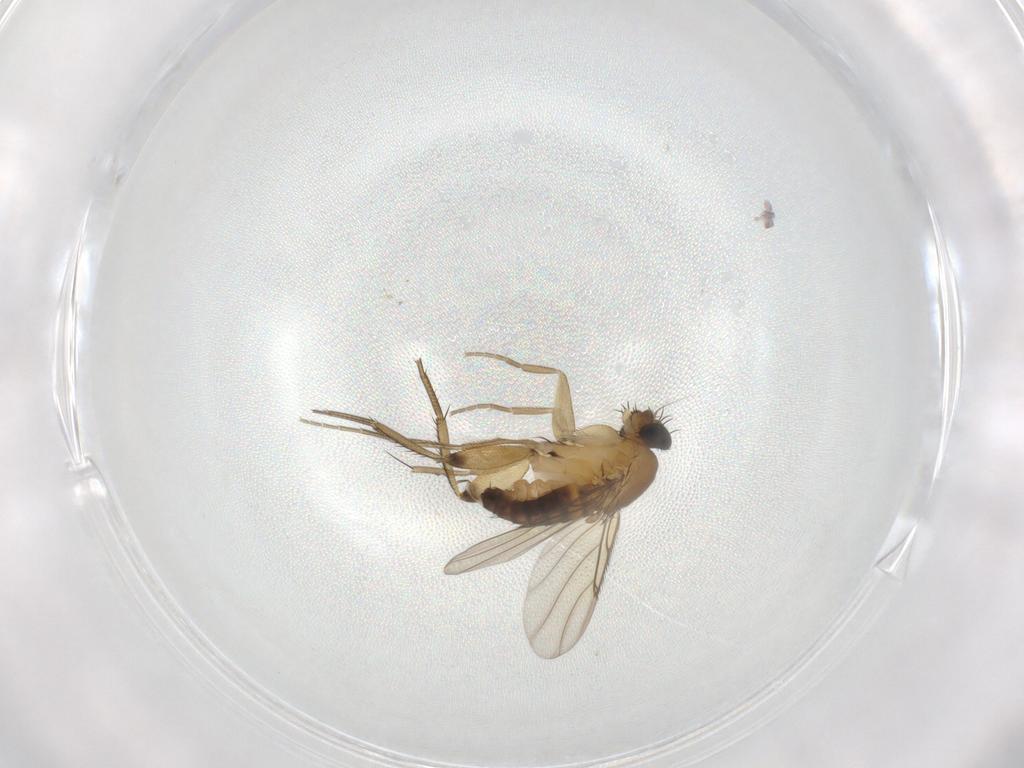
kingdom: Animalia
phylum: Arthropoda
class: Insecta
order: Diptera
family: Phoridae
